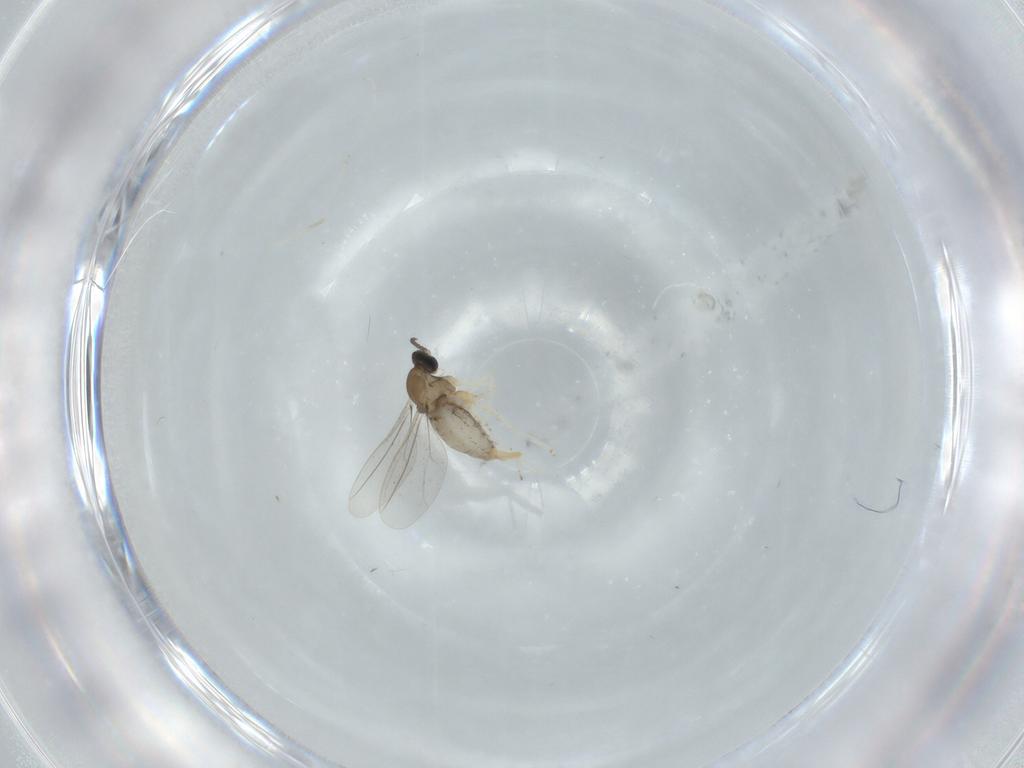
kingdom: Animalia
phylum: Arthropoda
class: Insecta
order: Diptera
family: Cecidomyiidae
